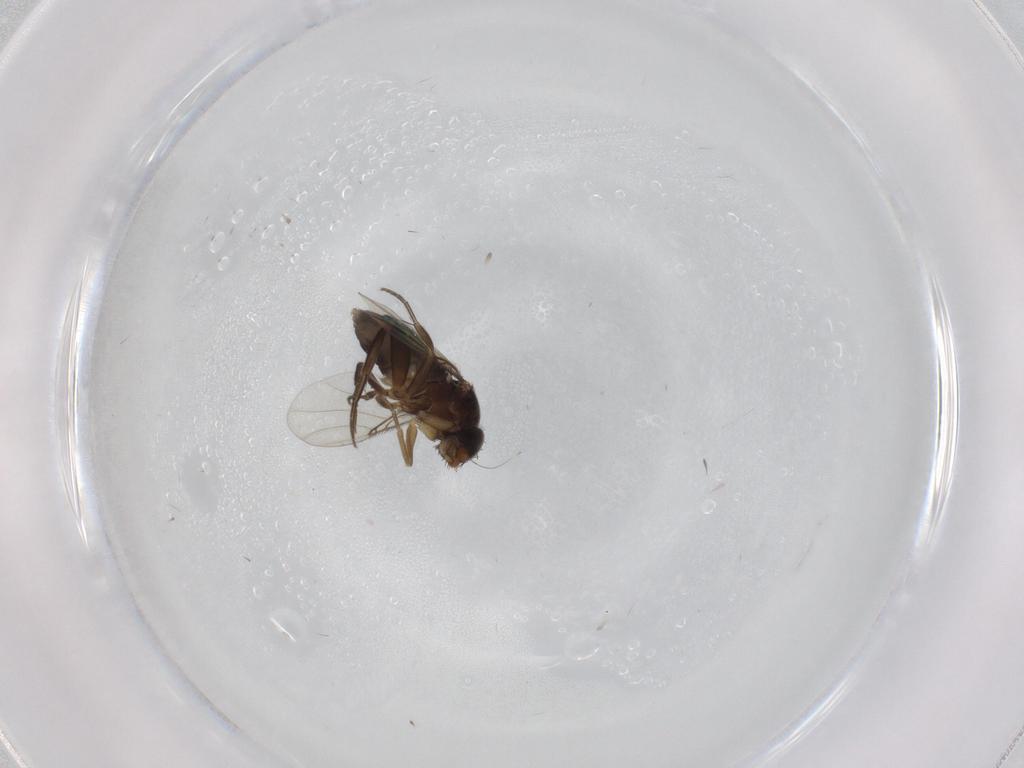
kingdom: Animalia
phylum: Arthropoda
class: Insecta
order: Diptera
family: Phoridae
